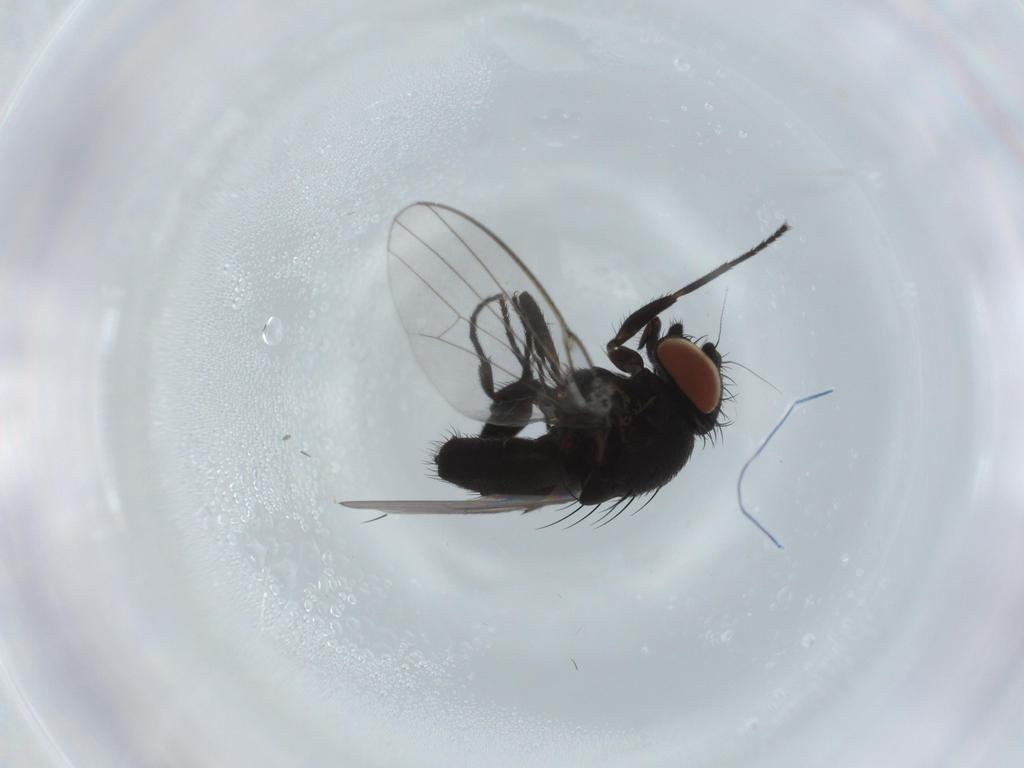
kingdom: Animalia
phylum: Arthropoda
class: Insecta
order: Diptera
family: Milichiidae
